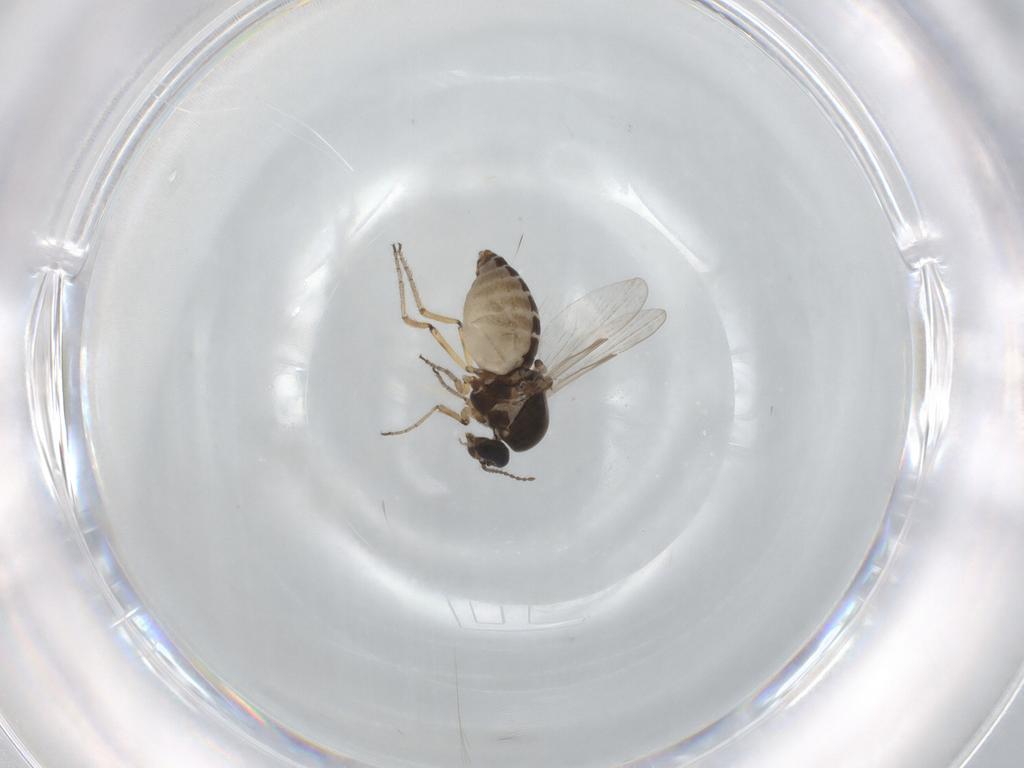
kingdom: Animalia
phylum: Arthropoda
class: Insecta
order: Diptera
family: Ceratopogonidae
